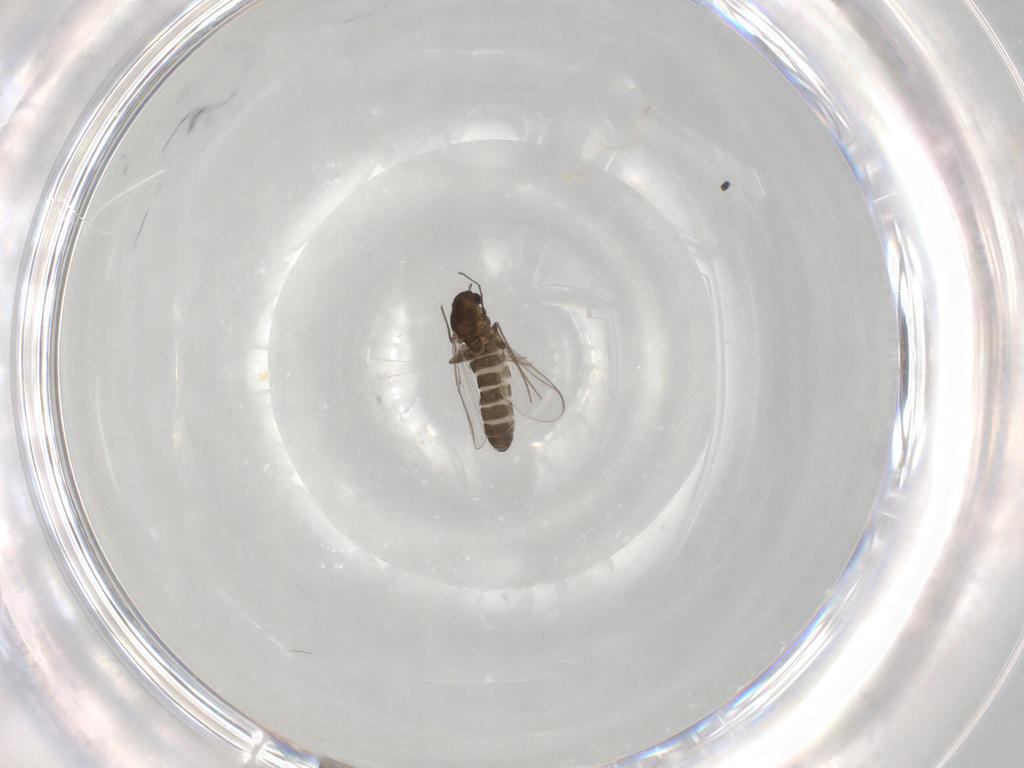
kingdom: Animalia
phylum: Arthropoda
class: Insecta
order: Diptera
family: Chironomidae
